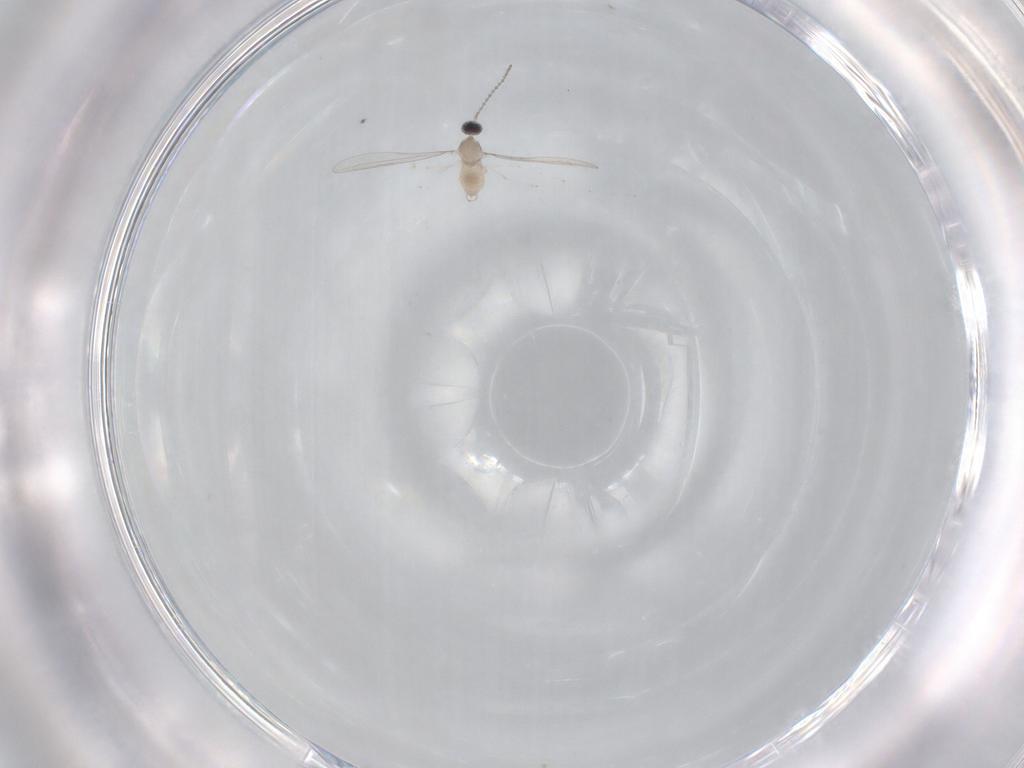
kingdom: Animalia
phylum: Arthropoda
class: Insecta
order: Diptera
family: Cecidomyiidae
